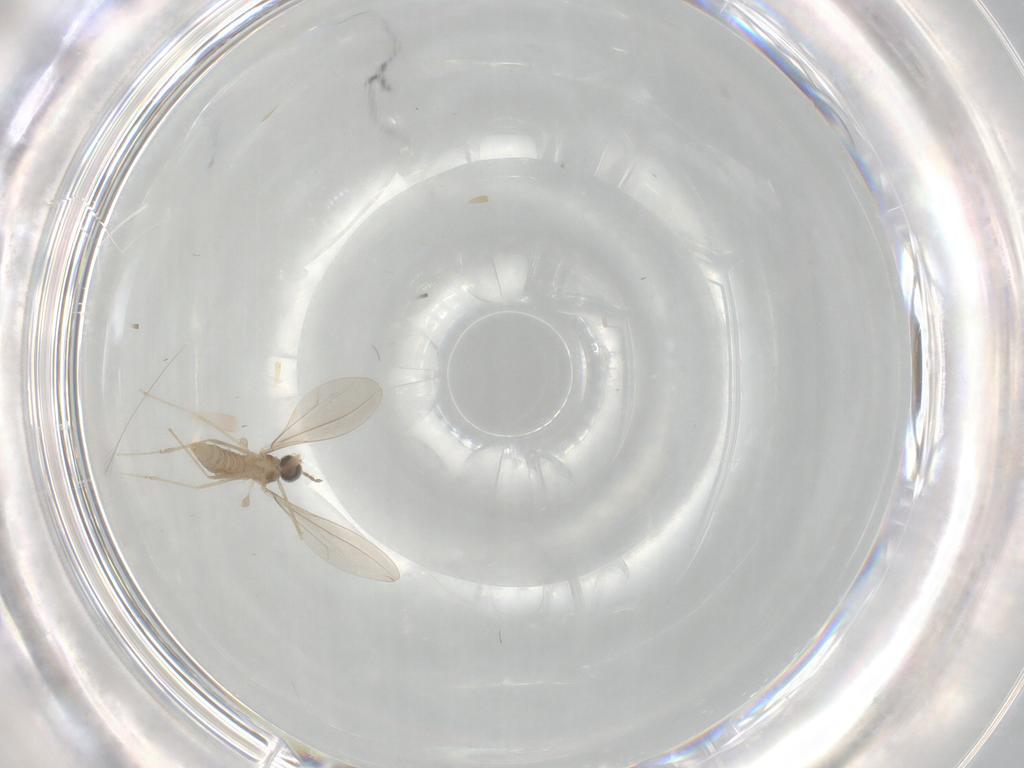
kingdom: Animalia
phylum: Arthropoda
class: Insecta
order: Diptera
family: Cecidomyiidae
